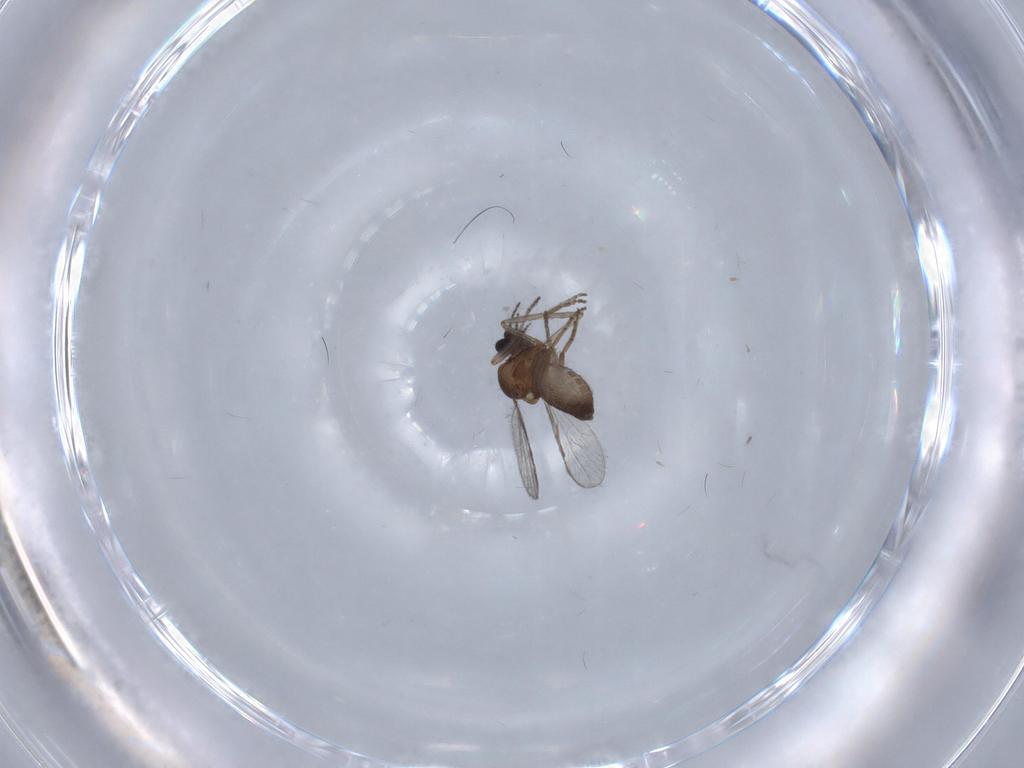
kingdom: Animalia
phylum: Arthropoda
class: Insecta
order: Diptera
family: Cecidomyiidae
